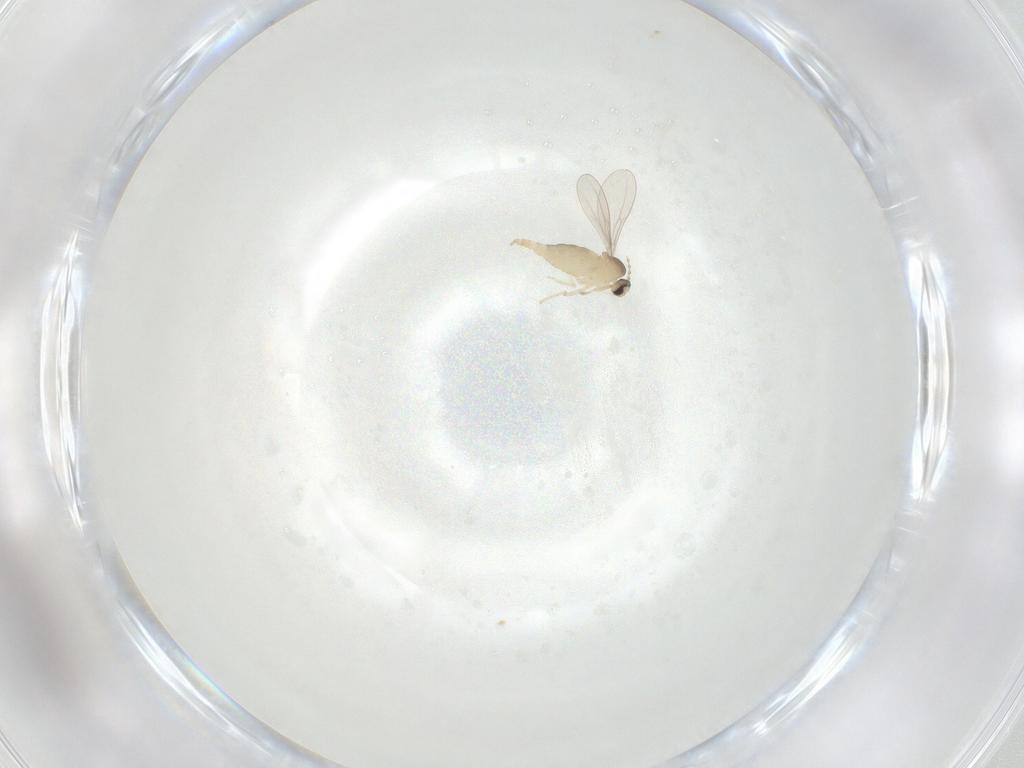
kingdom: Animalia
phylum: Arthropoda
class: Insecta
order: Diptera
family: Cecidomyiidae
